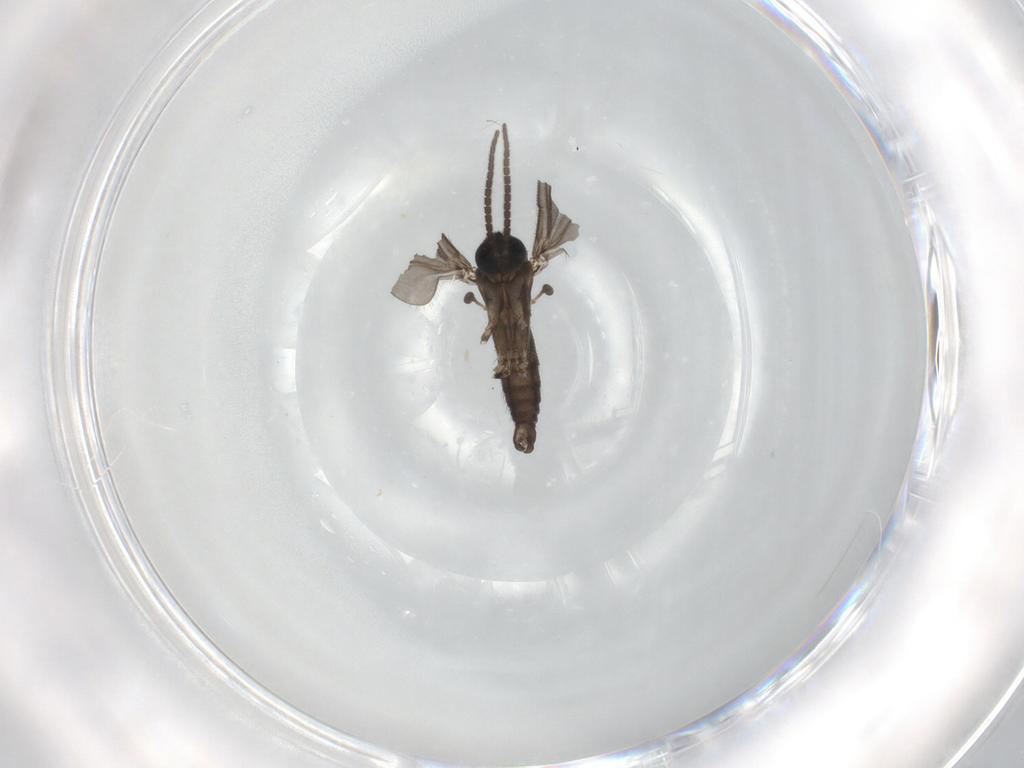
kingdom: Animalia
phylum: Arthropoda
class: Insecta
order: Diptera
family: Sciaridae
